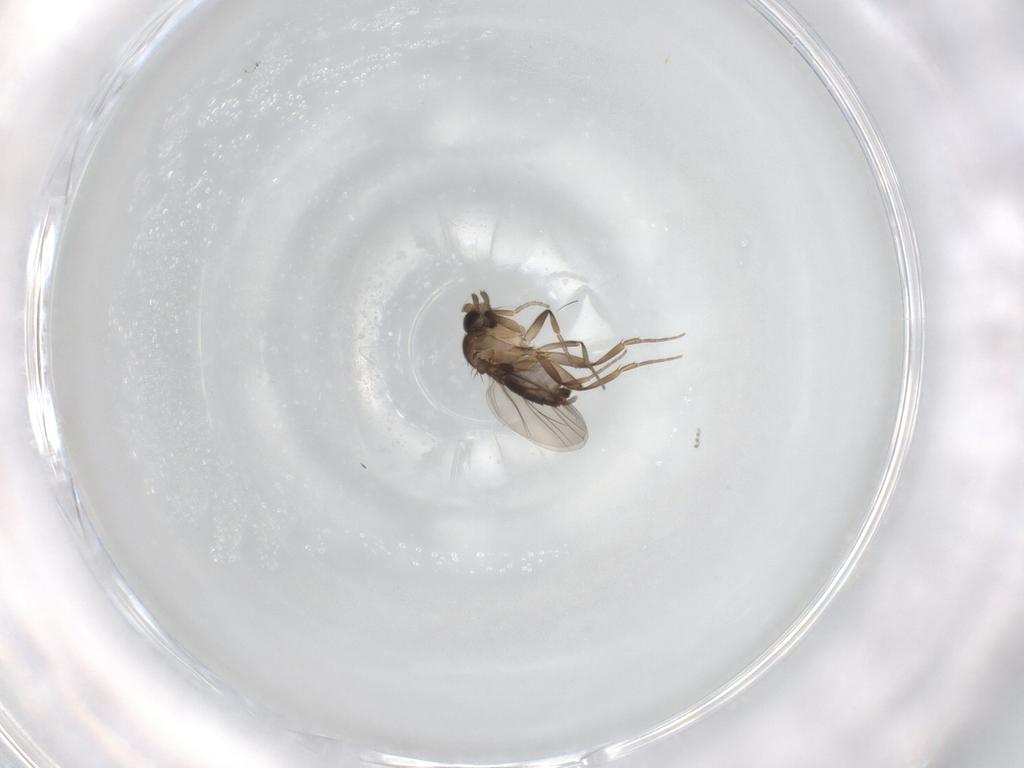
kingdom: Animalia
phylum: Arthropoda
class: Insecta
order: Diptera
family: Phoridae
